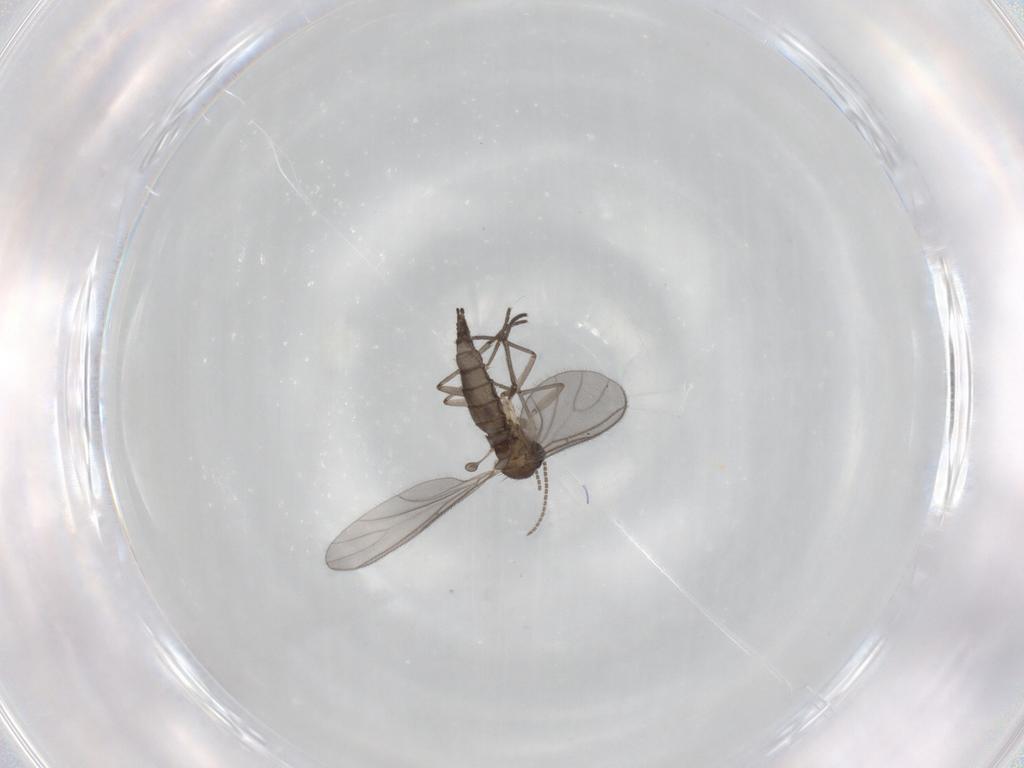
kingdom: Animalia
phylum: Arthropoda
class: Insecta
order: Diptera
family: Sciaridae
